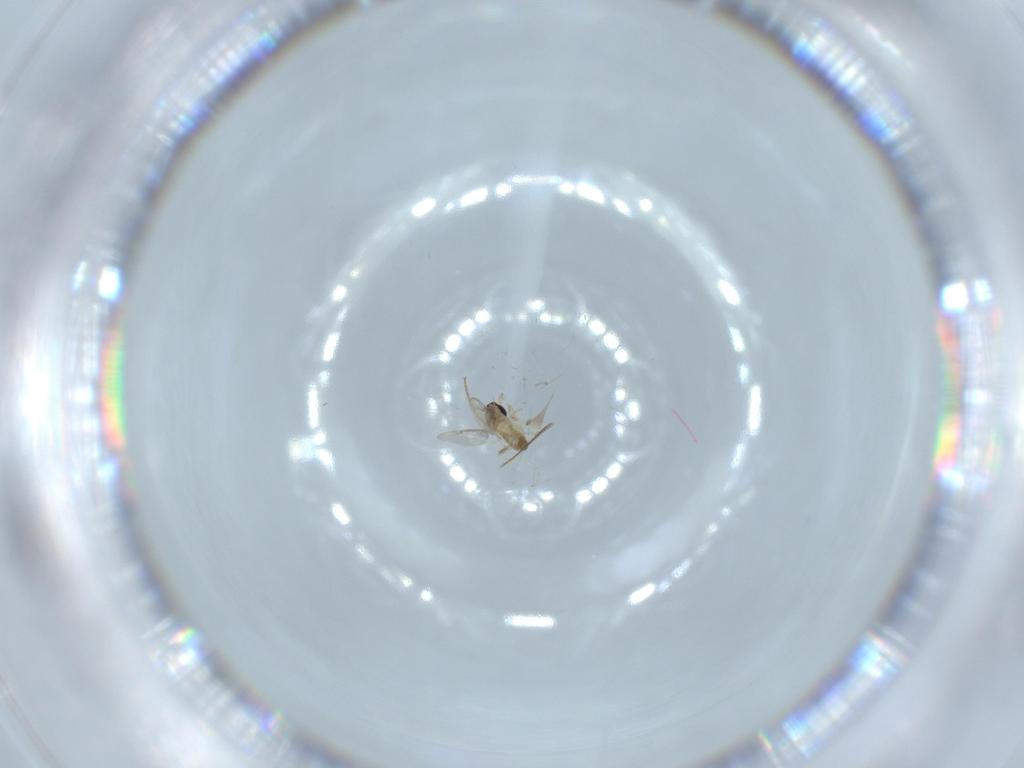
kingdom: Animalia
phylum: Arthropoda
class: Insecta
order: Diptera
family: Cecidomyiidae
